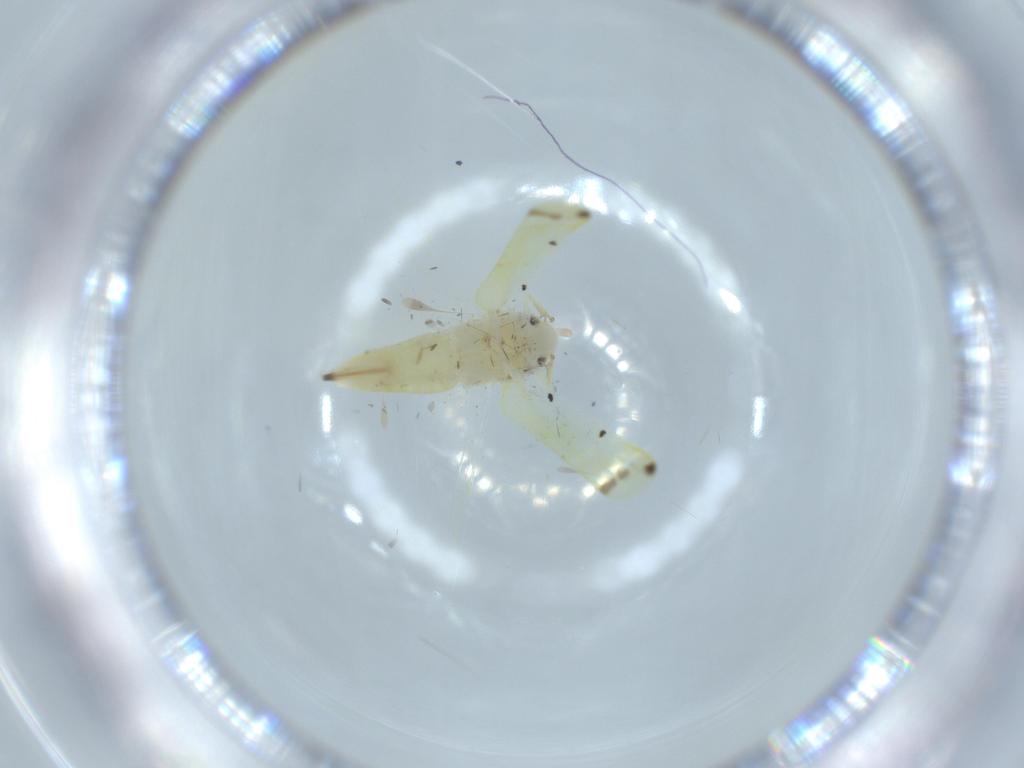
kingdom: Animalia
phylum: Arthropoda
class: Insecta
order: Hemiptera
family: Cicadellidae
